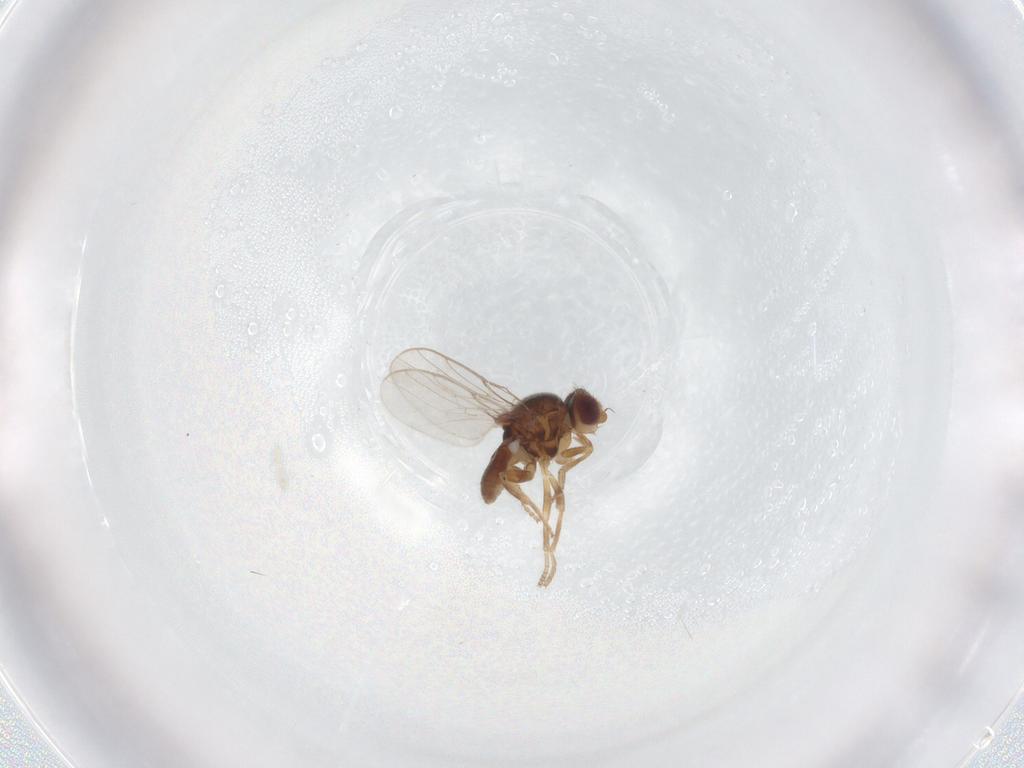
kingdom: Animalia
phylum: Arthropoda
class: Insecta
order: Diptera
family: Chloropidae
